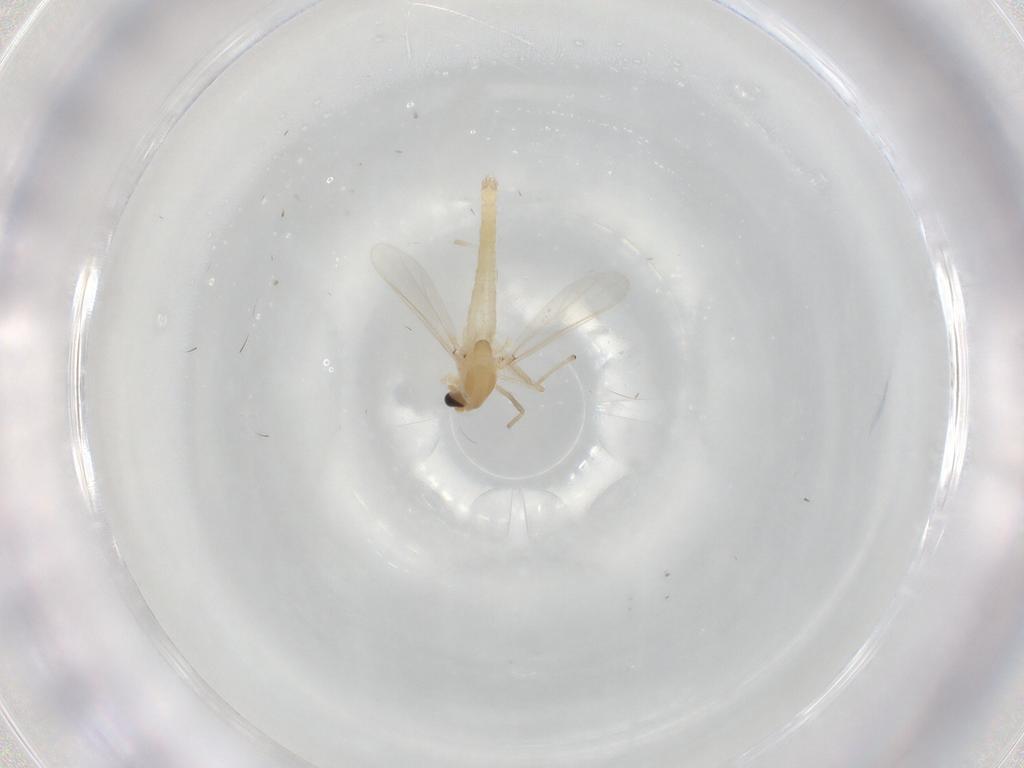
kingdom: Animalia
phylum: Arthropoda
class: Insecta
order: Diptera
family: Chironomidae
